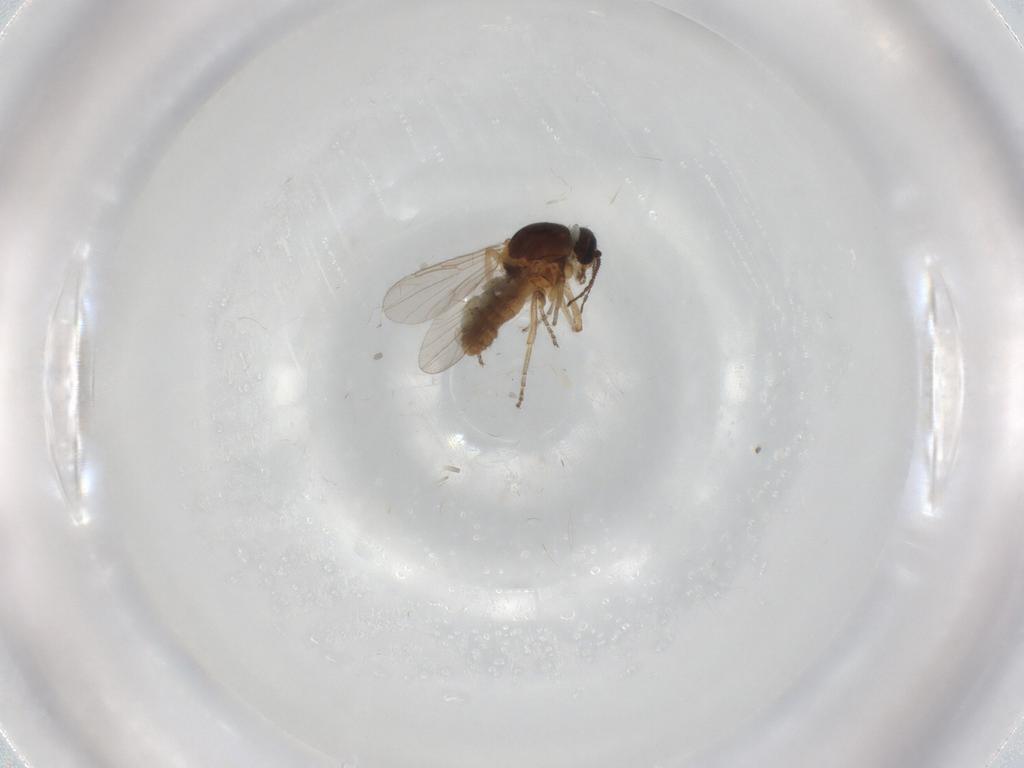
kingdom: Animalia
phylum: Arthropoda
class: Insecta
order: Diptera
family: Ceratopogonidae
